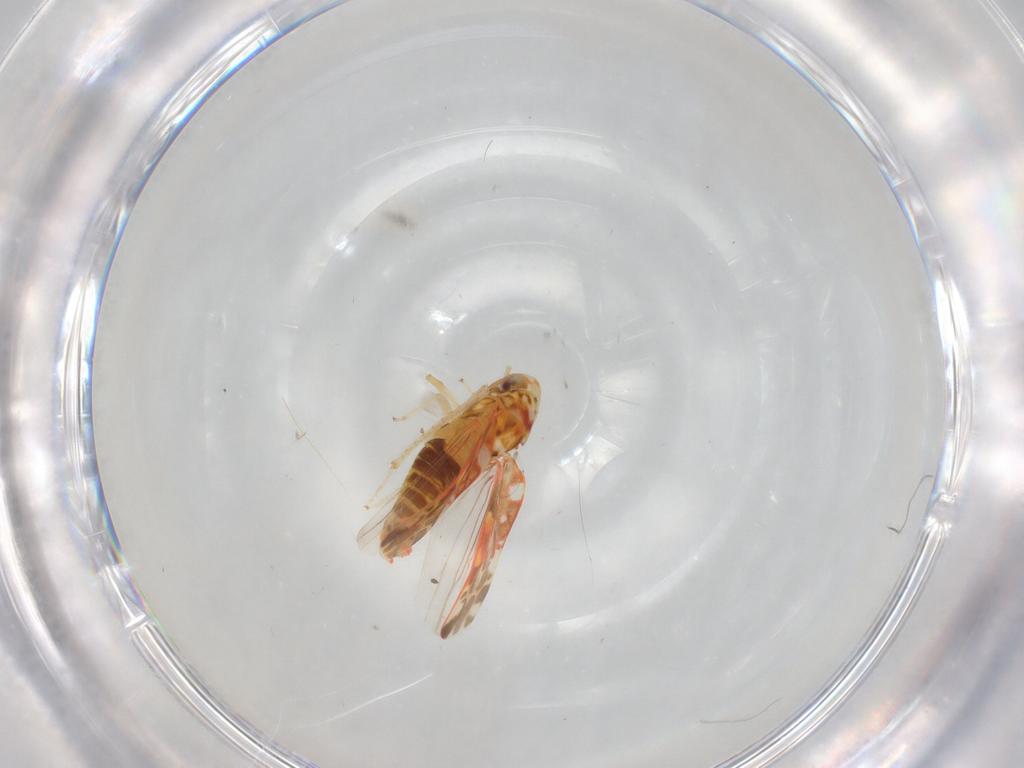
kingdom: Animalia
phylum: Arthropoda
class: Insecta
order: Hemiptera
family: Cicadellidae
